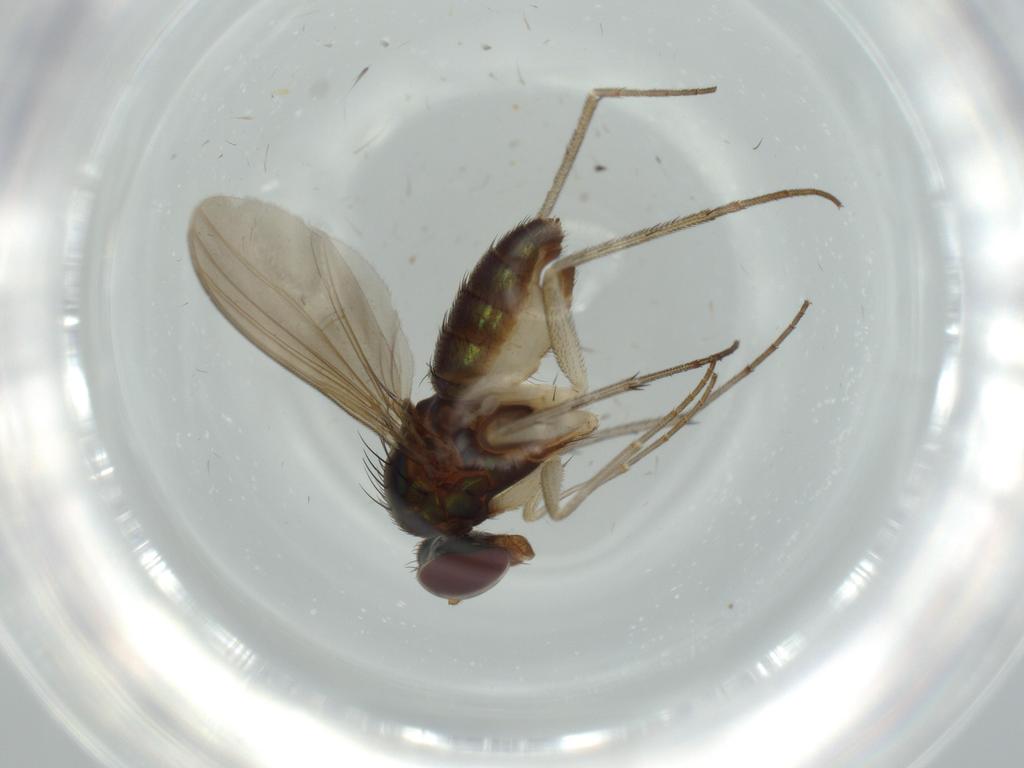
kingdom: Animalia
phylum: Arthropoda
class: Insecta
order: Diptera
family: Dolichopodidae
